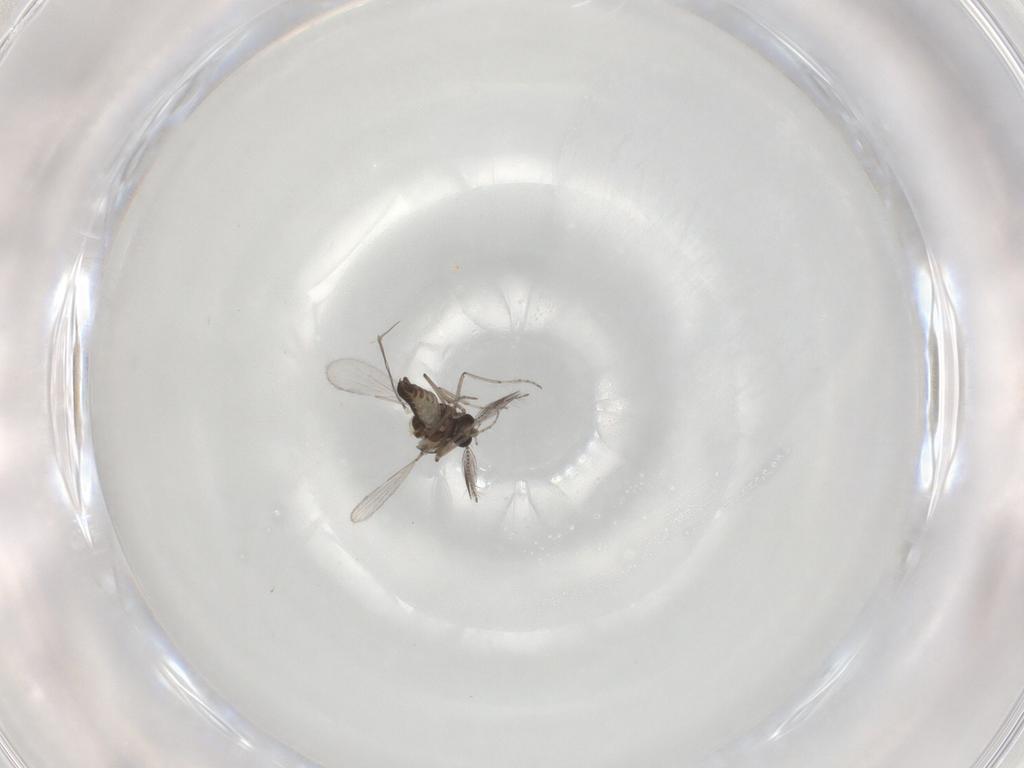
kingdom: Animalia
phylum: Arthropoda
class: Insecta
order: Diptera
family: Ceratopogonidae
